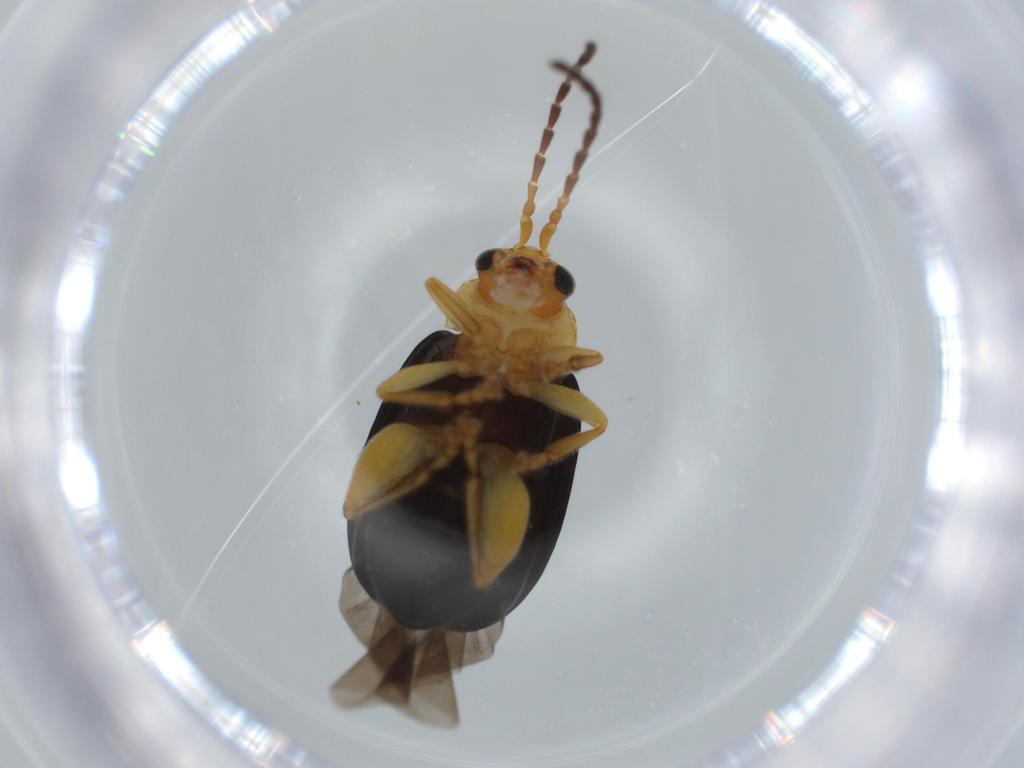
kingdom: Animalia
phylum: Arthropoda
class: Insecta
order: Coleoptera
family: Chrysomelidae
